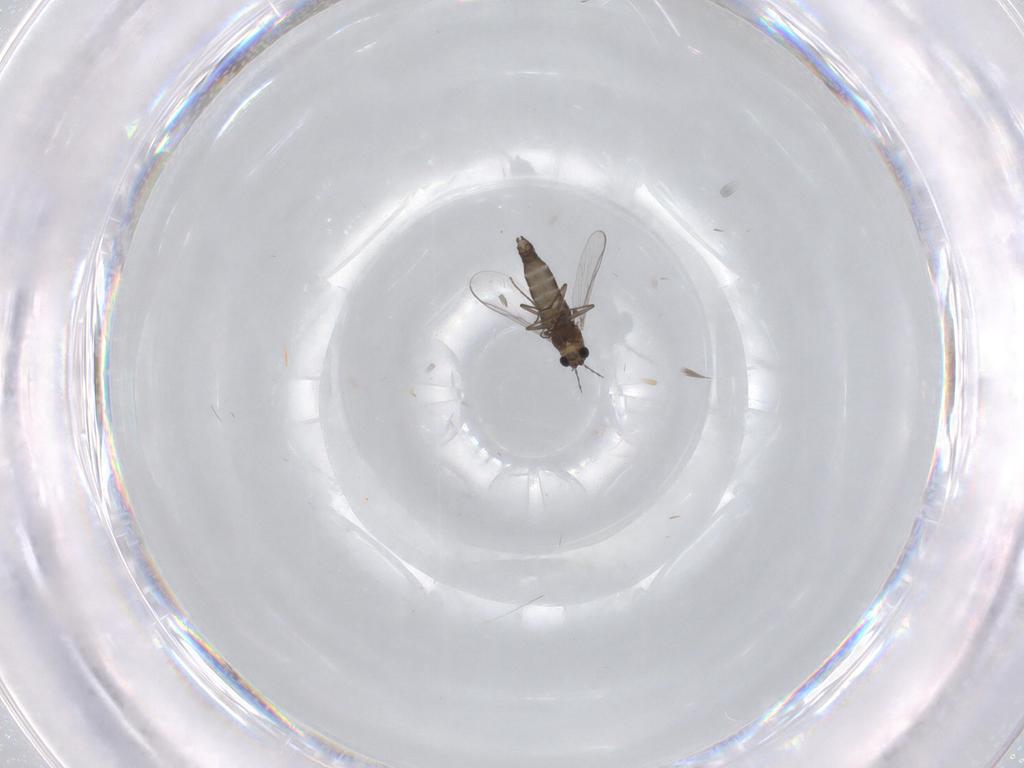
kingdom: Animalia
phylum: Arthropoda
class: Insecta
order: Diptera
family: Chironomidae
